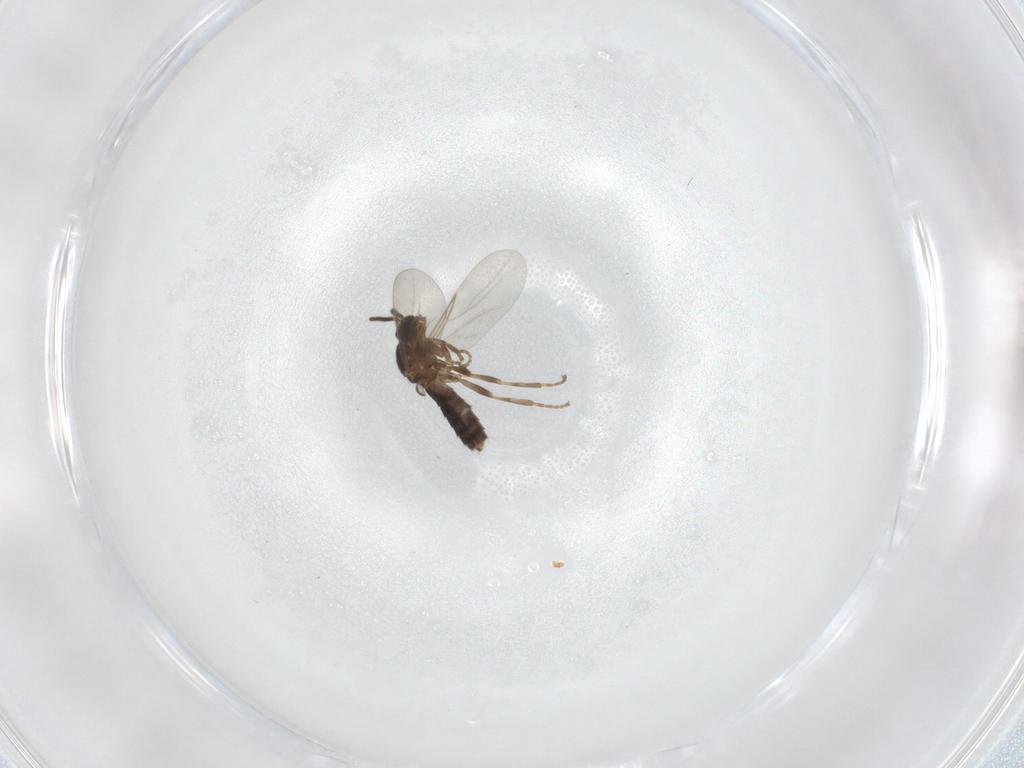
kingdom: Animalia
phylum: Arthropoda
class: Insecta
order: Diptera
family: Scatopsidae
